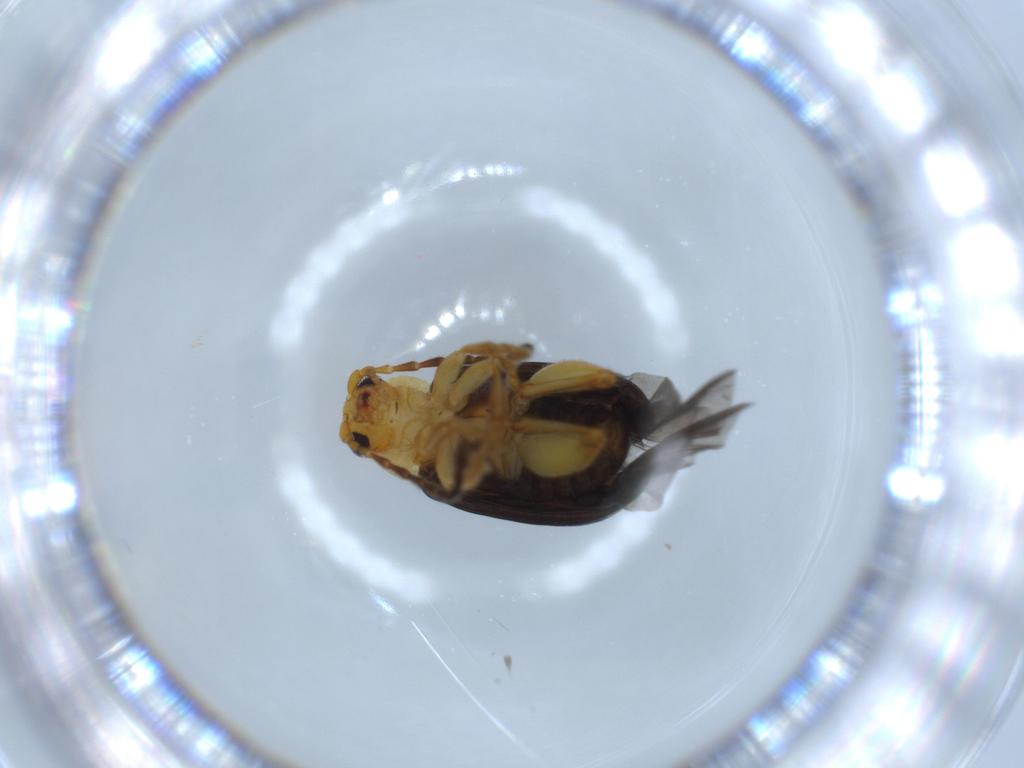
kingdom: Animalia
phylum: Arthropoda
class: Insecta
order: Coleoptera
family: Chrysomelidae
